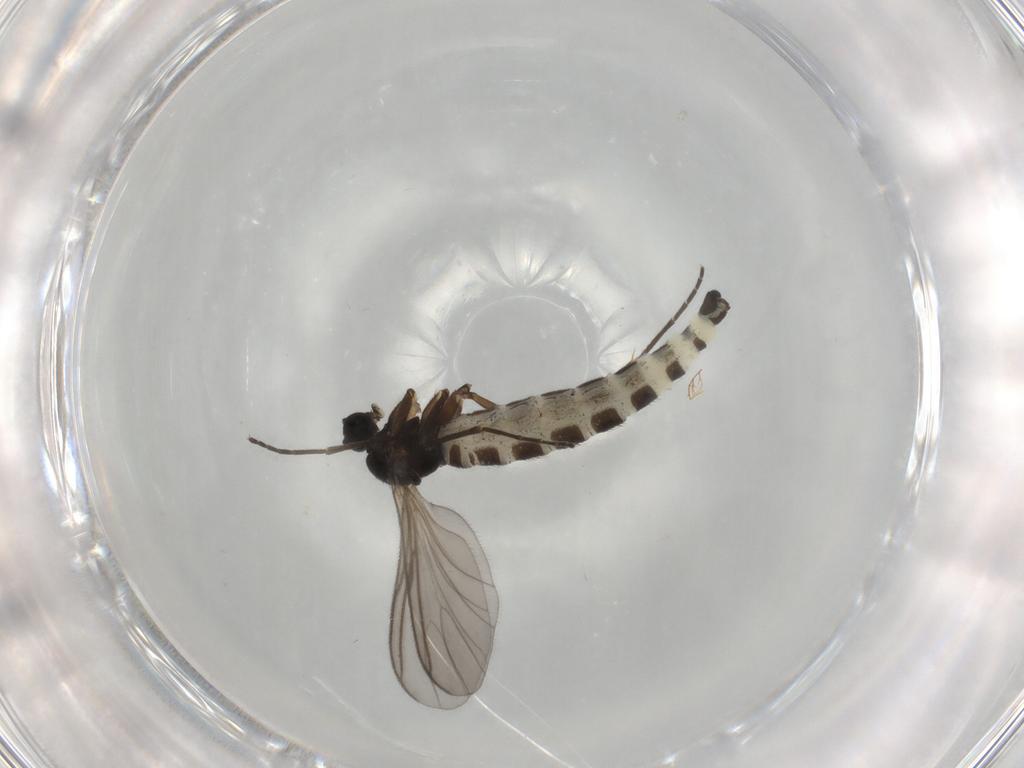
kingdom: Animalia
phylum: Arthropoda
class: Insecta
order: Diptera
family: Sciaridae
